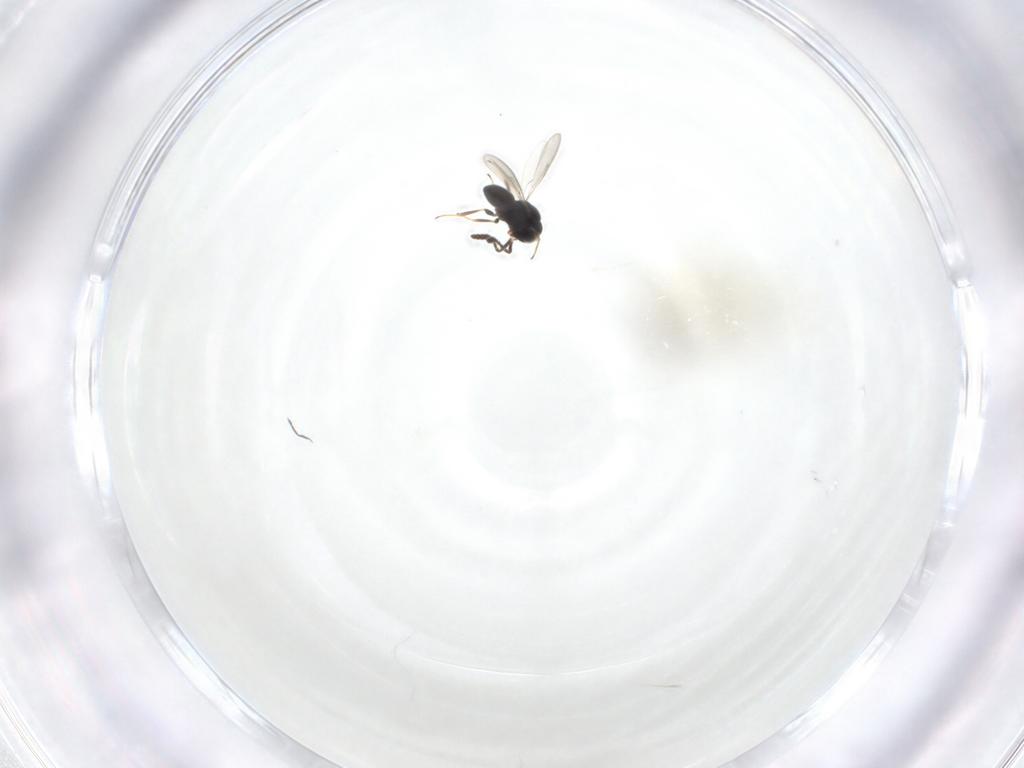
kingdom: Animalia
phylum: Arthropoda
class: Insecta
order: Hymenoptera
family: Scelionidae
